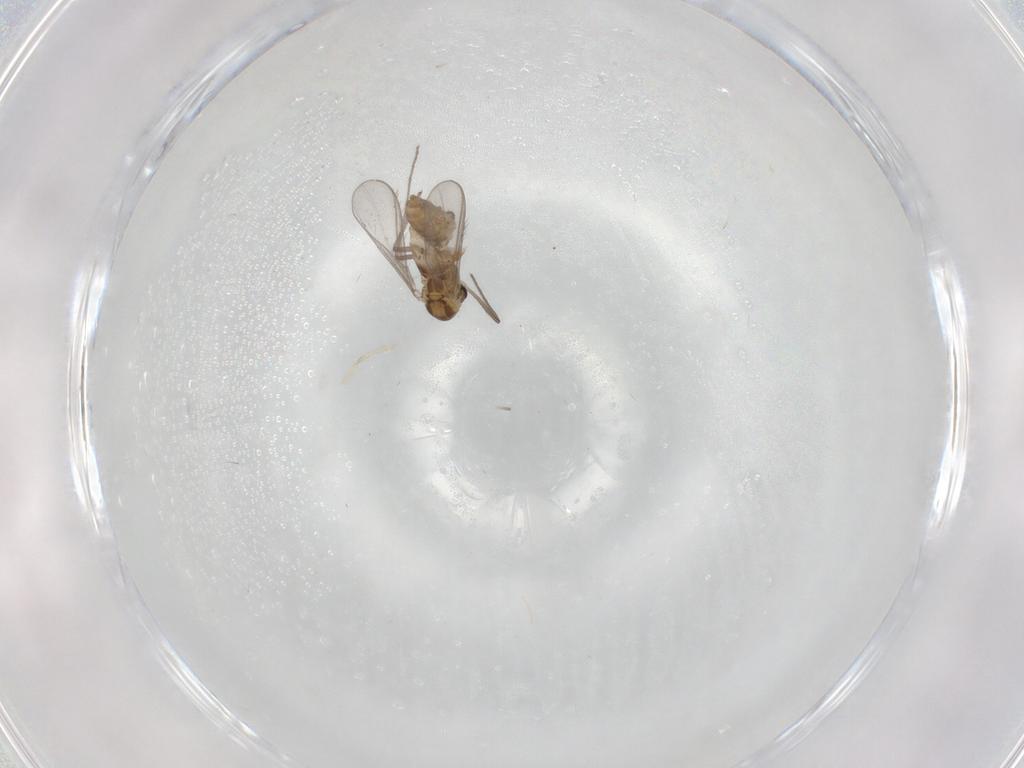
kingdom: Animalia
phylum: Arthropoda
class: Insecta
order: Diptera
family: Chironomidae
